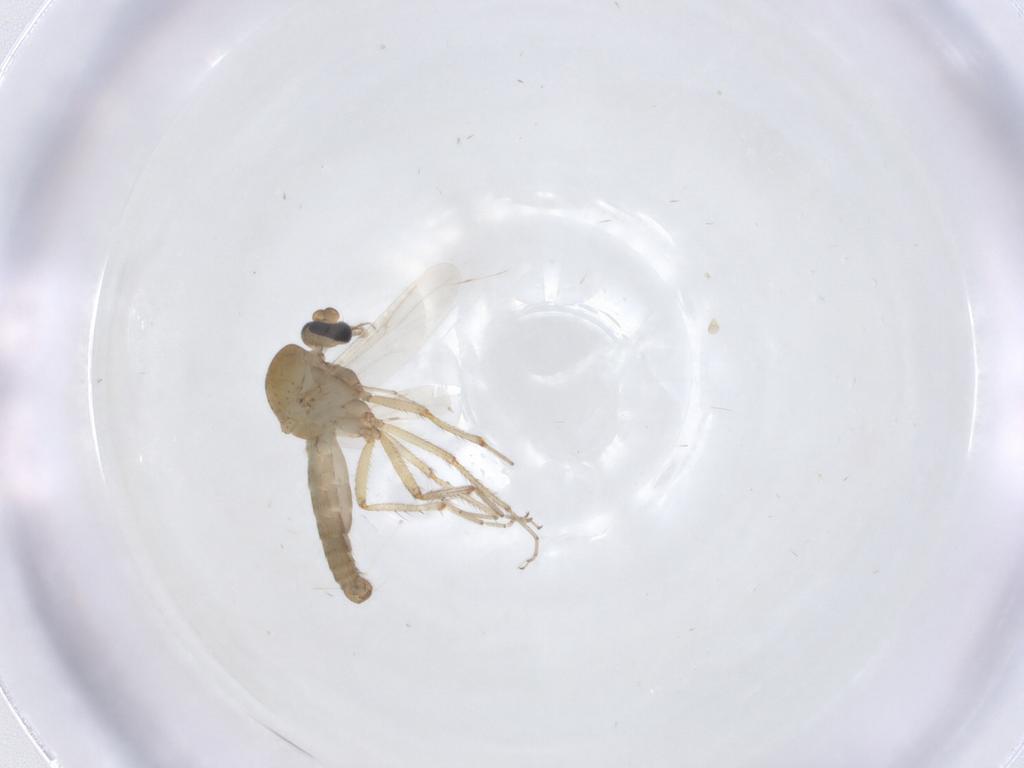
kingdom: Animalia
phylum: Arthropoda
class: Insecta
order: Diptera
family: Ceratopogonidae
